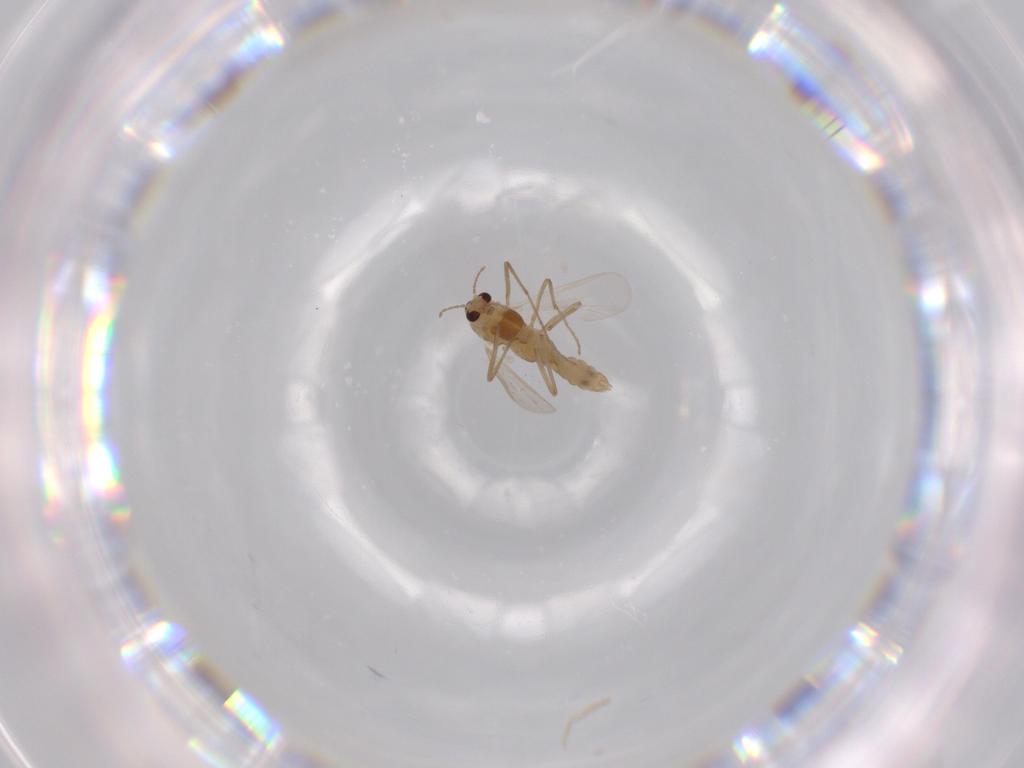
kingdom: Animalia
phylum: Arthropoda
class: Insecta
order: Diptera
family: Chironomidae
